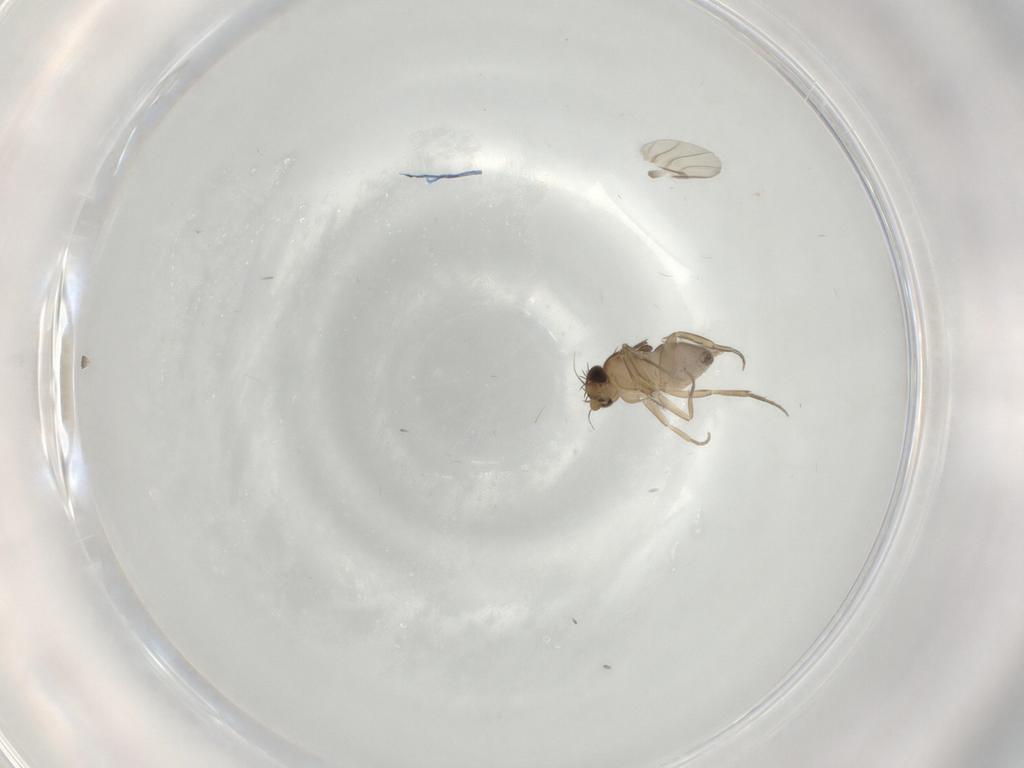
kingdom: Animalia
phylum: Arthropoda
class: Insecta
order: Diptera
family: Phoridae
